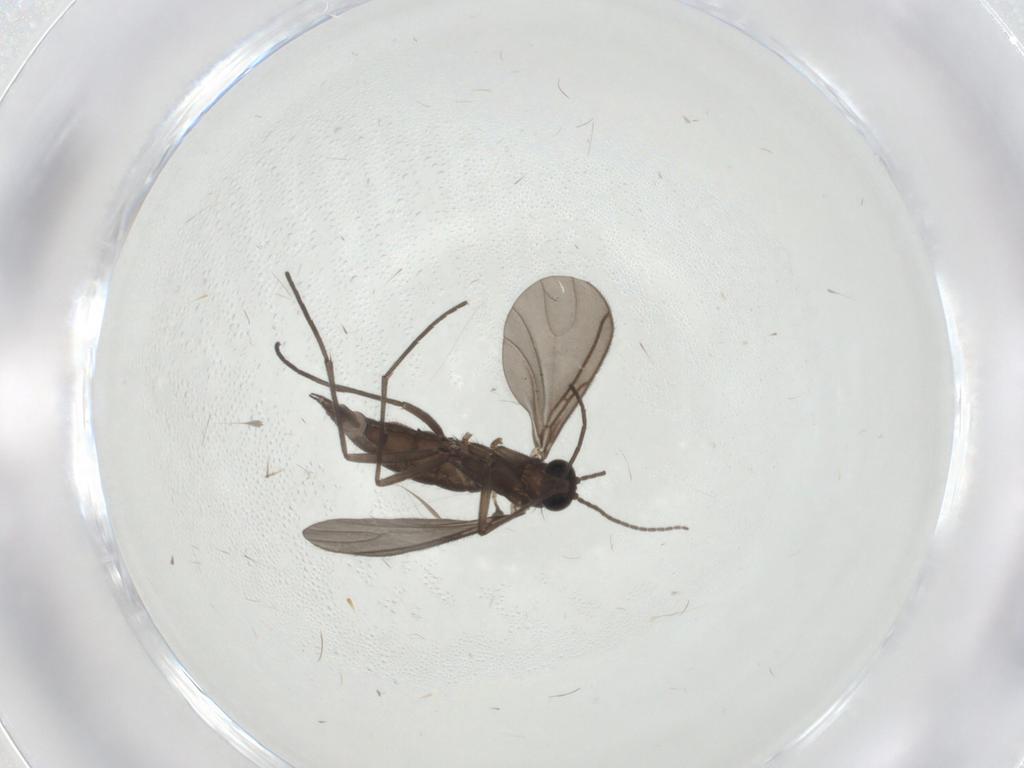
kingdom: Animalia
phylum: Arthropoda
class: Insecta
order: Diptera
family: Sciaridae
